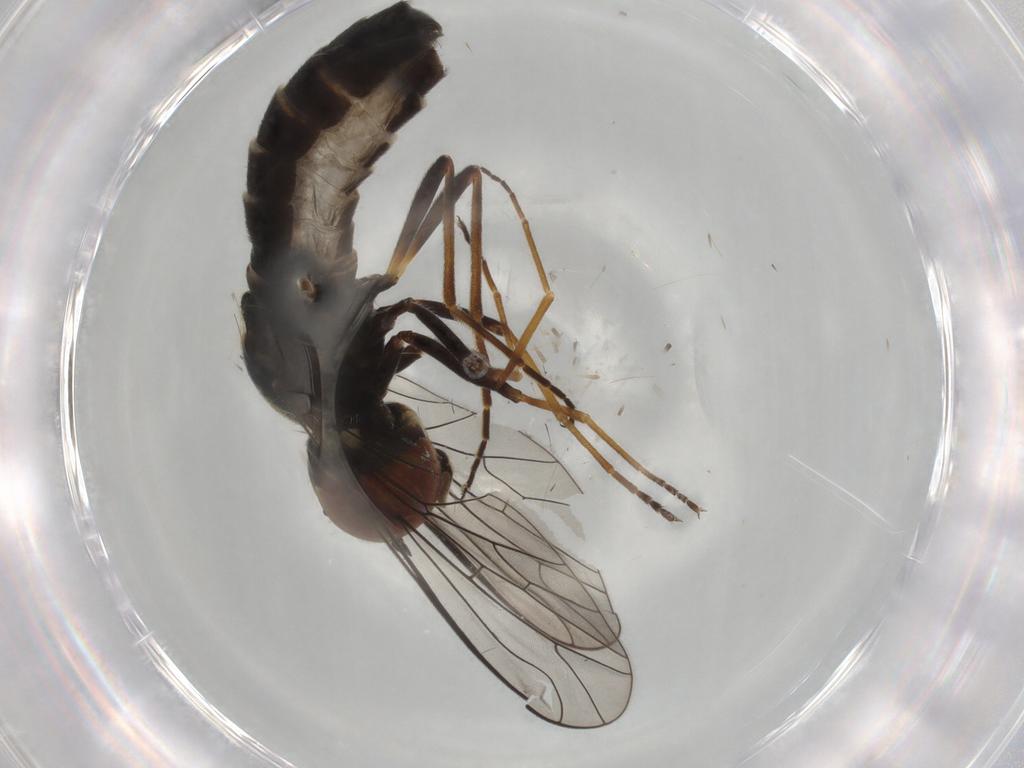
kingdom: Animalia
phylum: Arthropoda
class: Insecta
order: Diptera
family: Bombyliidae
